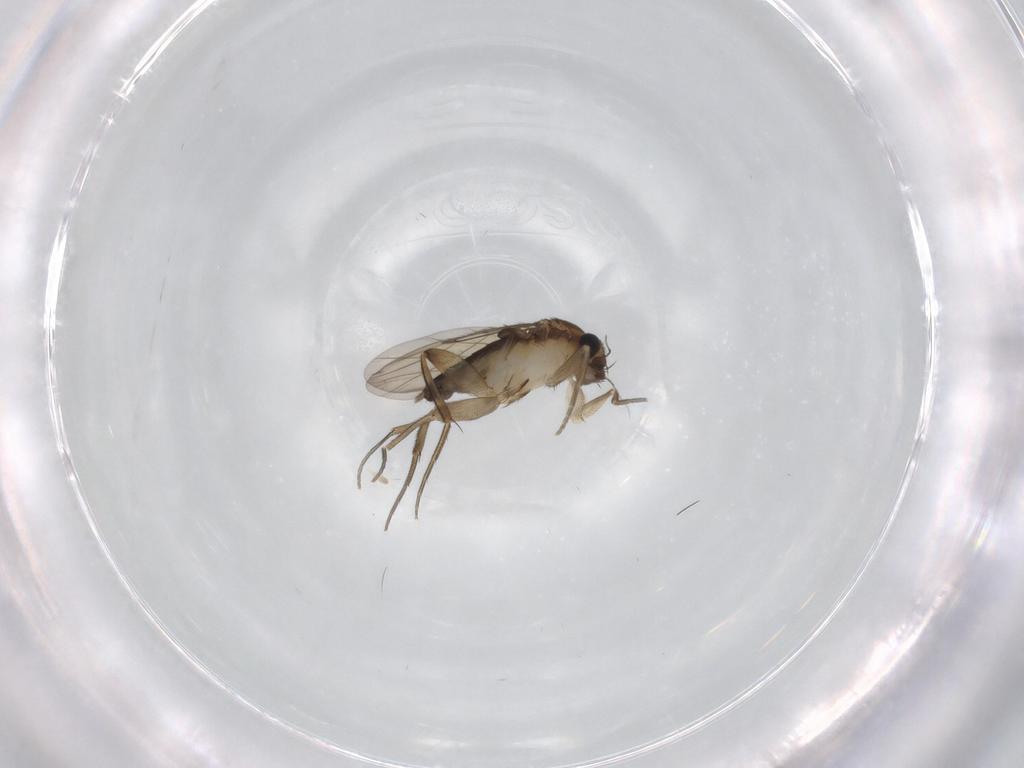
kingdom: Animalia
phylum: Arthropoda
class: Insecta
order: Diptera
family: Phoridae
